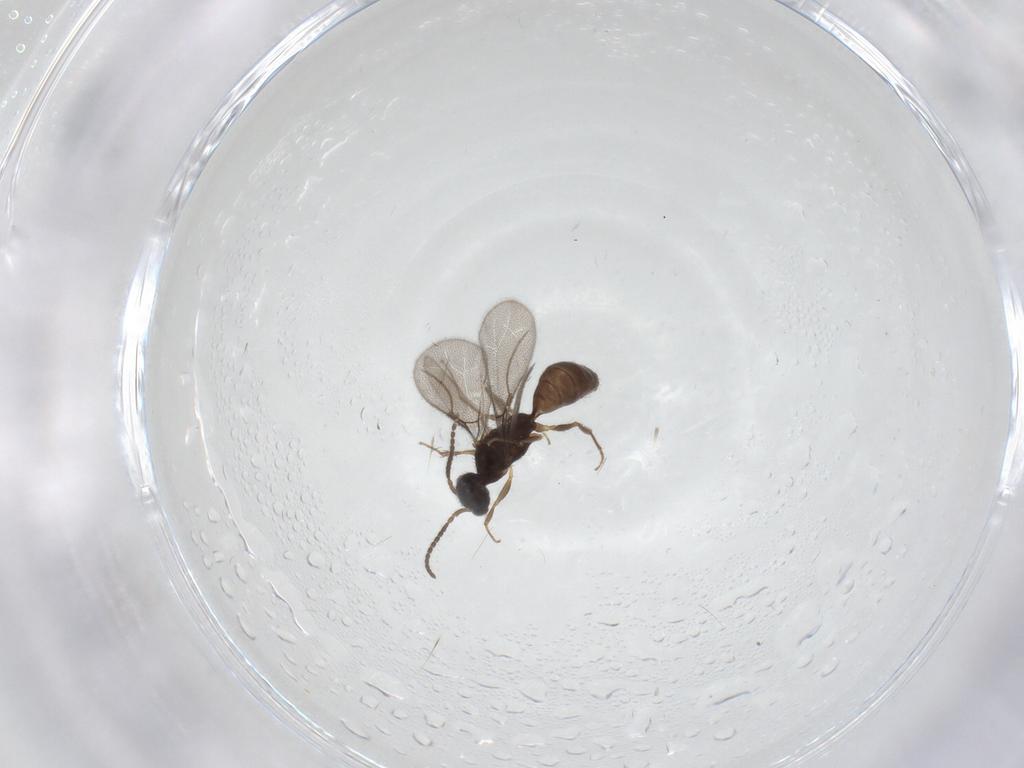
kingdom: Animalia
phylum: Arthropoda
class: Insecta
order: Hymenoptera
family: Bethylidae
